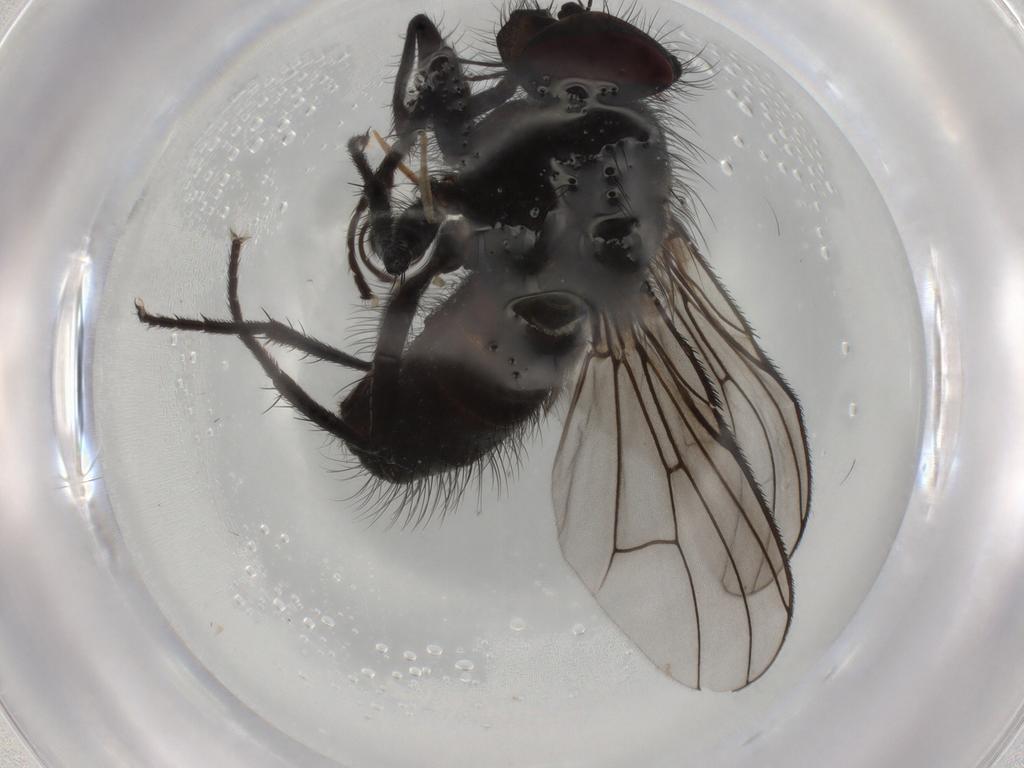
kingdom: Animalia
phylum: Arthropoda
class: Insecta
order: Diptera
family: Muscidae
